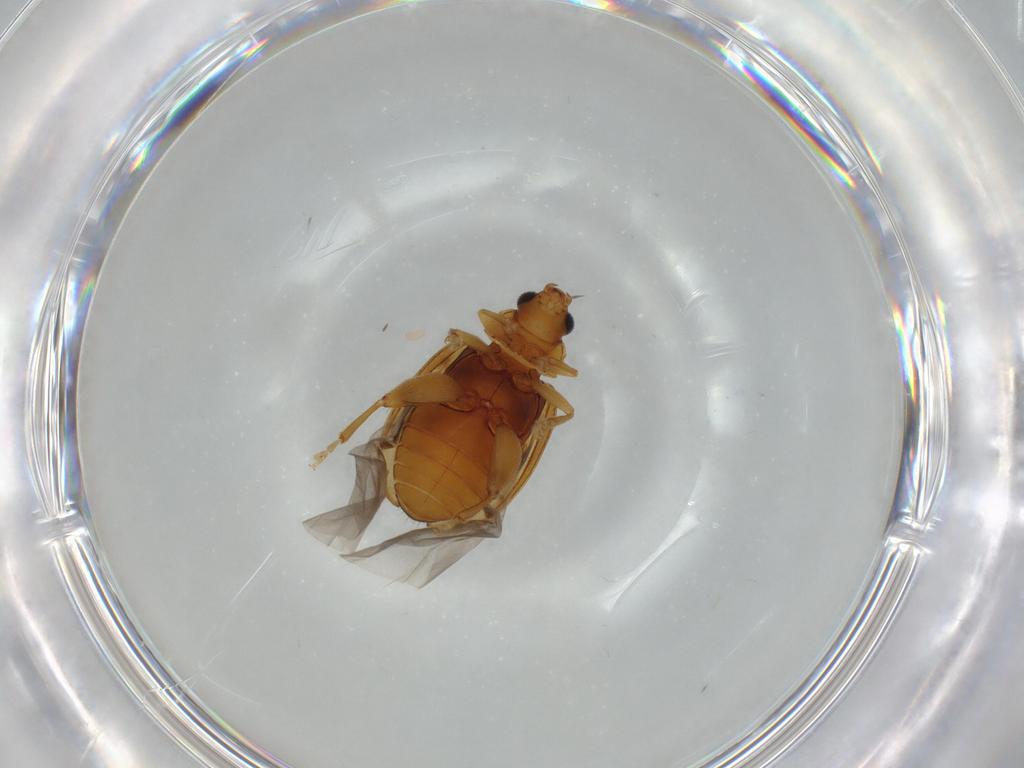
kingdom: Animalia
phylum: Arthropoda
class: Insecta
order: Coleoptera
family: Chrysomelidae
